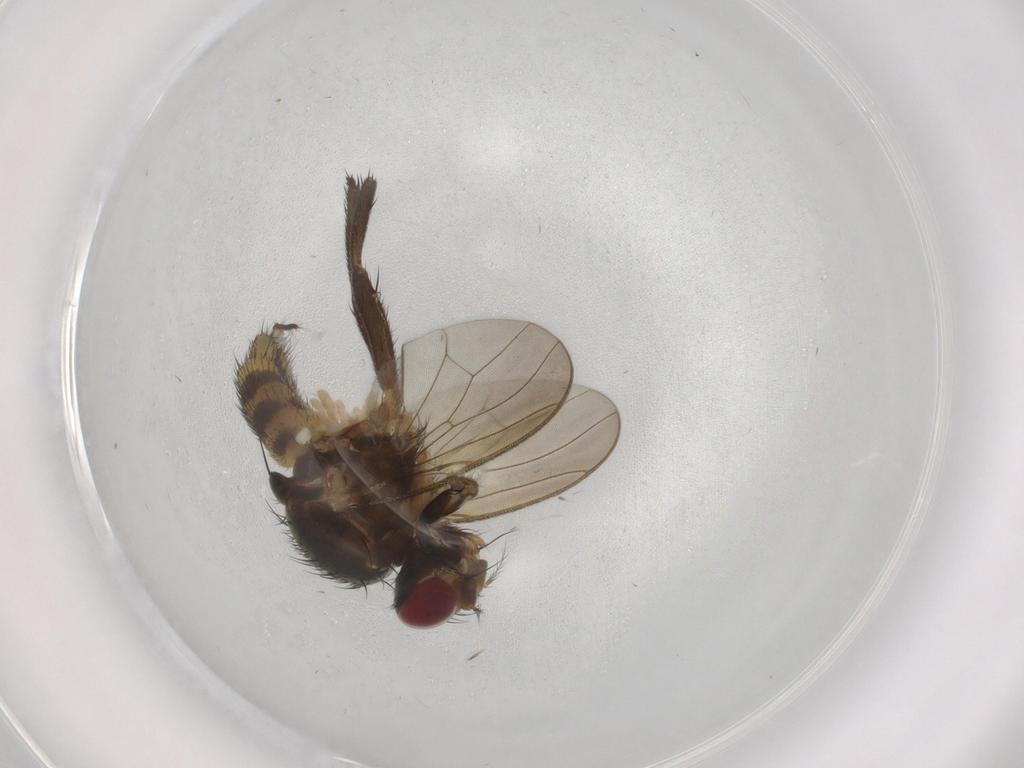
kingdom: Animalia
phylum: Arthropoda
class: Insecta
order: Diptera
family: Anthomyiidae
